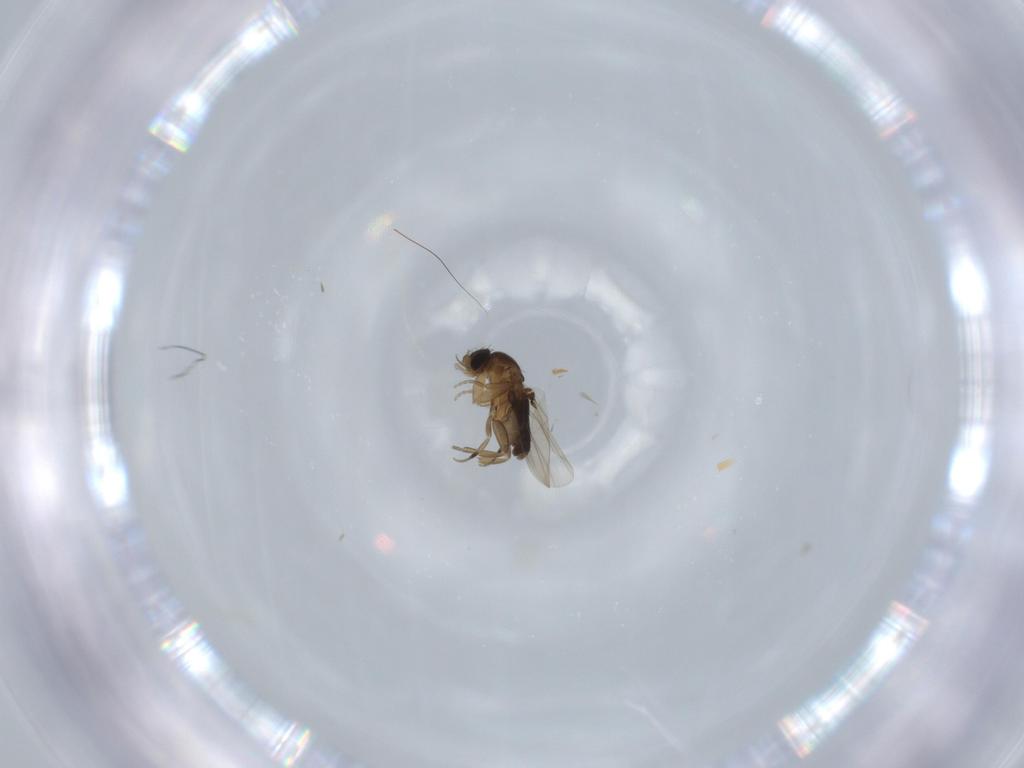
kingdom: Animalia
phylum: Arthropoda
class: Insecta
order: Diptera
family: Phoridae
